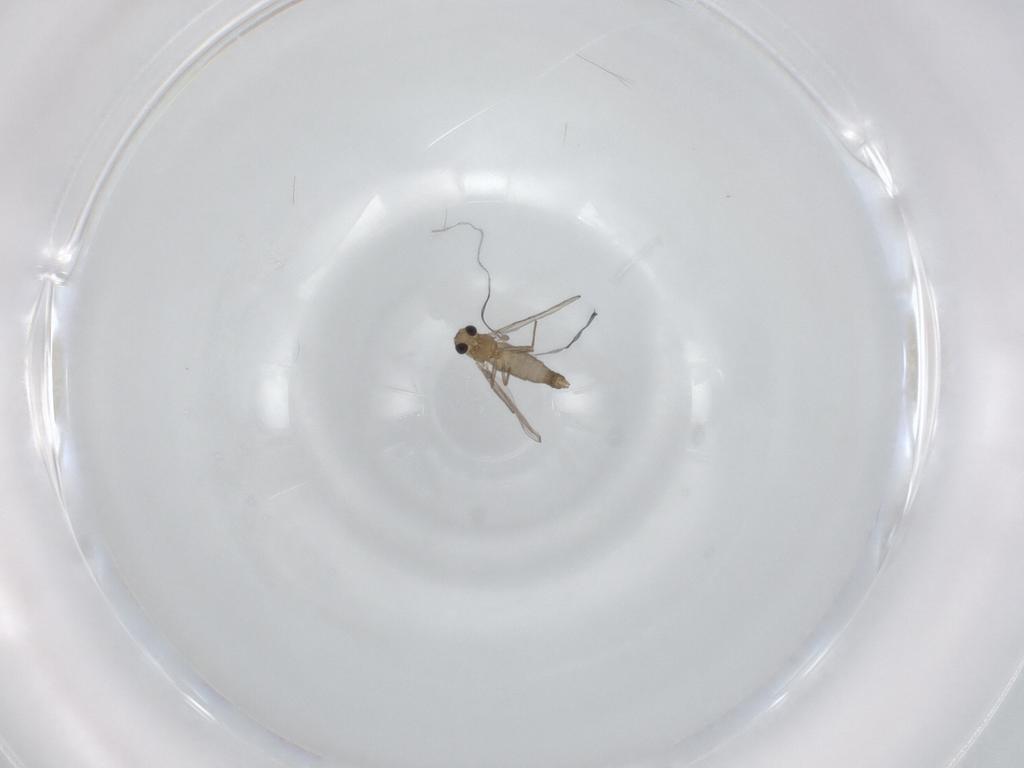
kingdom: Animalia
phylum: Arthropoda
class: Insecta
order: Diptera
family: Chironomidae
